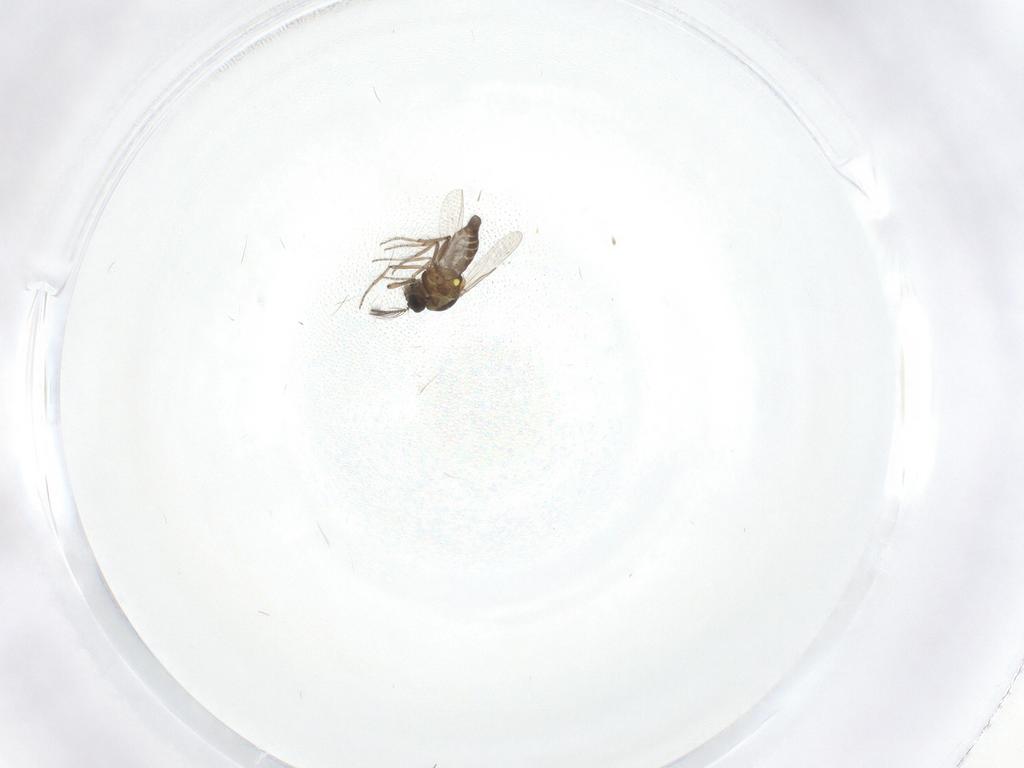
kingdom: Animalia
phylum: Arthropoda
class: Insecta
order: Diptera
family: Ceratopogonidae
